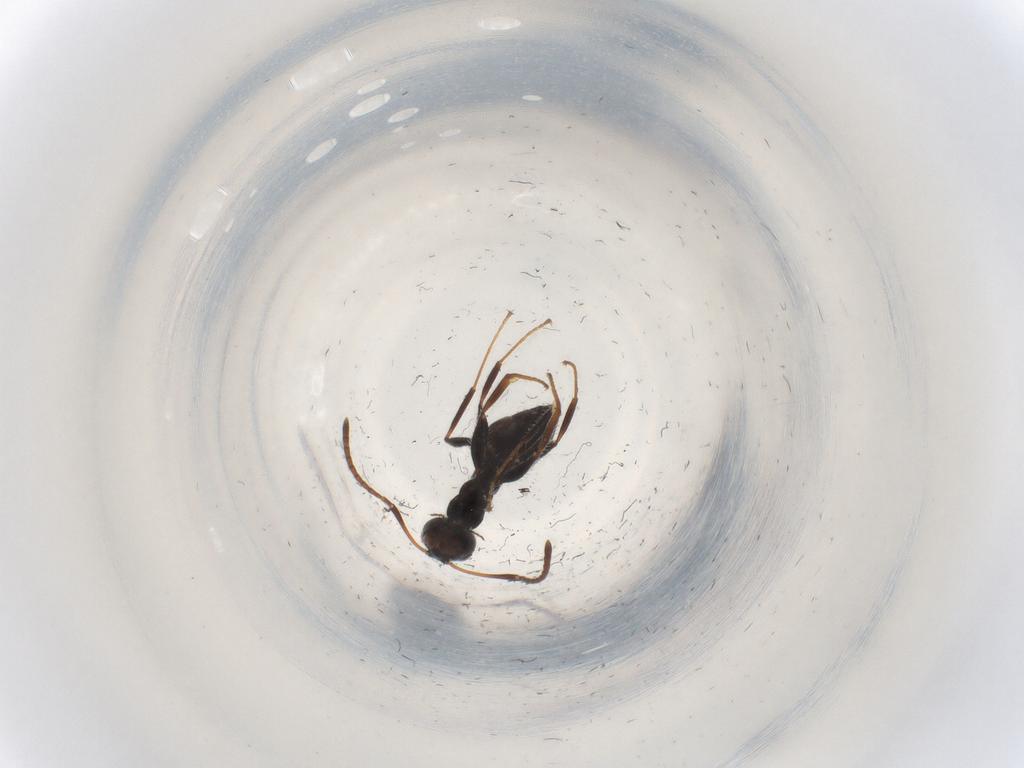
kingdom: Animalia
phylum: Arthropoda
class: Insecta
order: Hymenoptera
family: Formicidae
